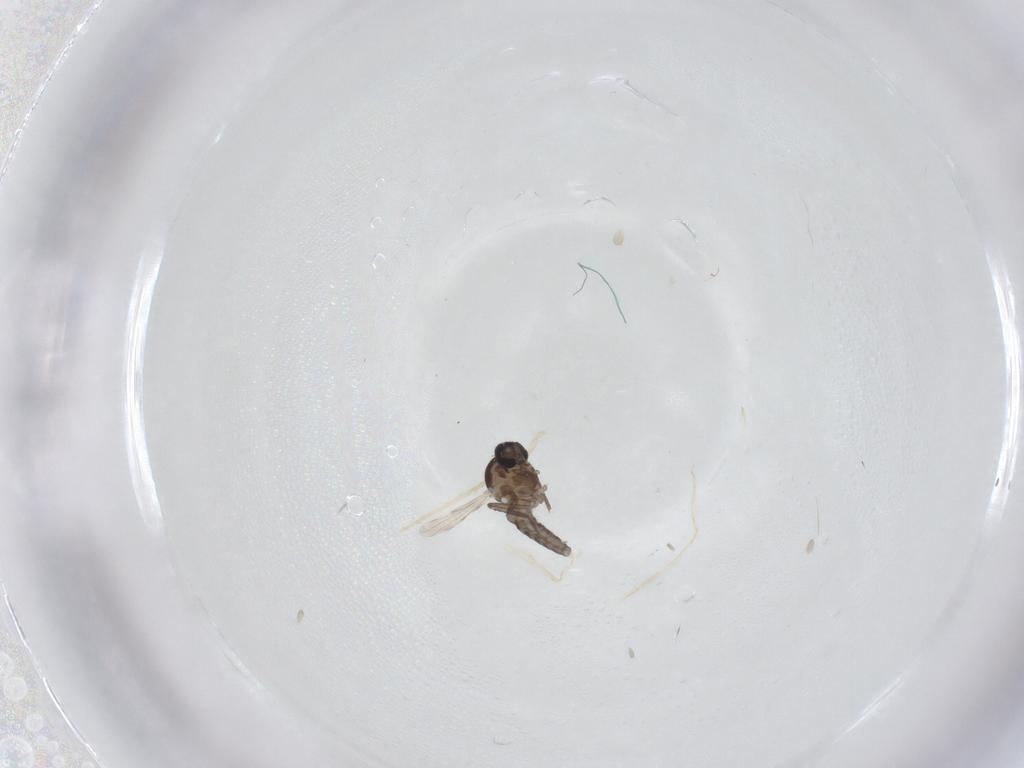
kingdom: Animalia
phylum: Arthropoda
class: Insecta
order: Diptera
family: Ceratopogonidae
